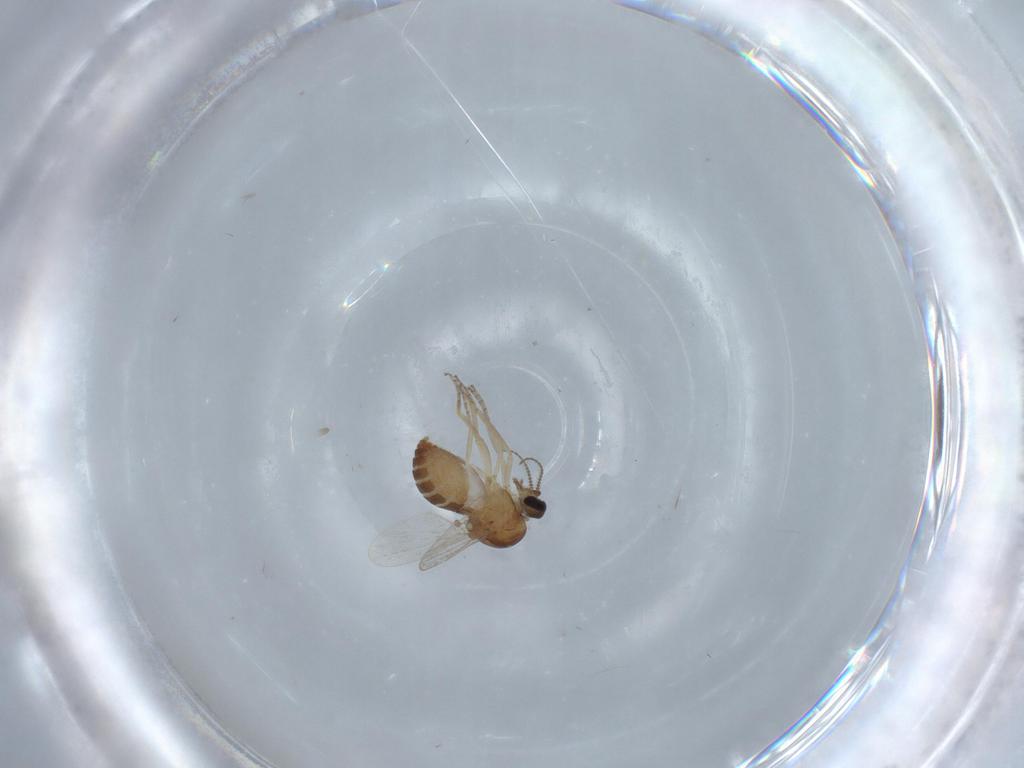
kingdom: Animalia
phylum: Arthropoda
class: Insecta
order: Diptera
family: Ceratopogonidae
